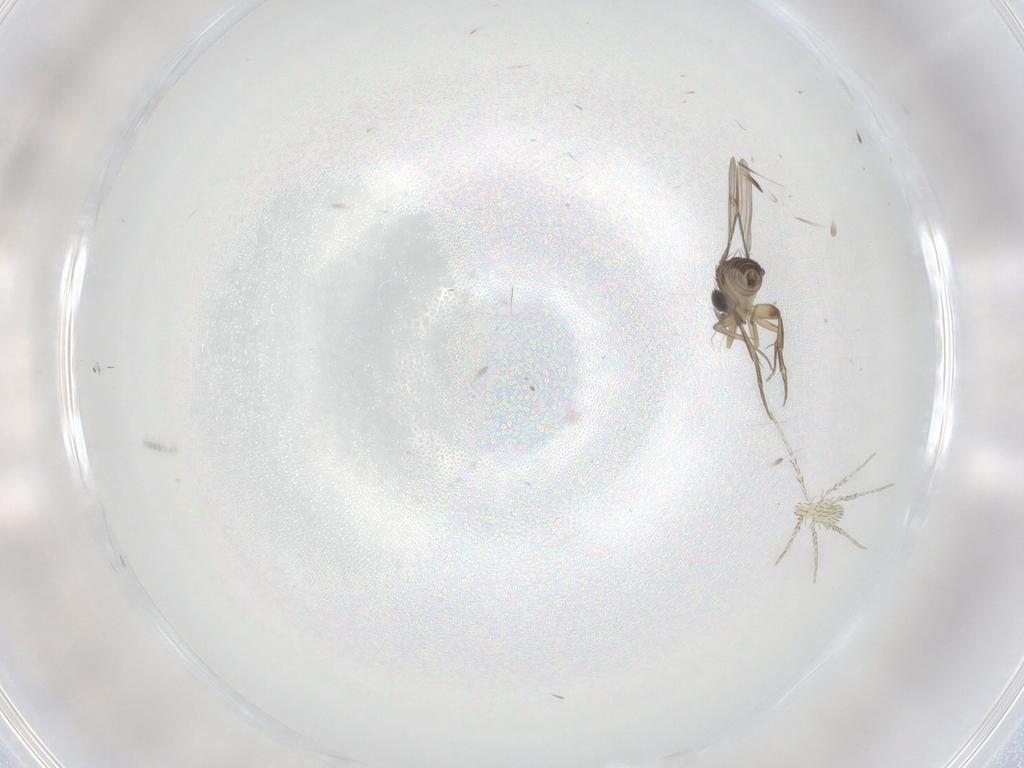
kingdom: Animalia
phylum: Arthropoda
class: Insecta
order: Diptera
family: Phoridae
